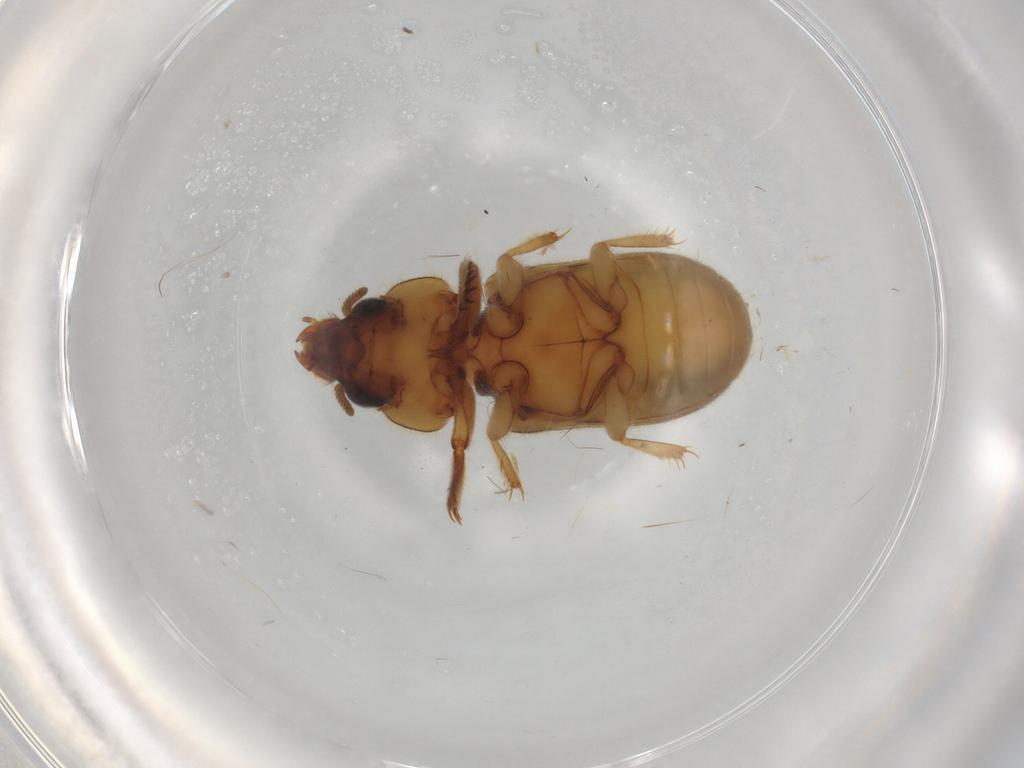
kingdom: Animalia
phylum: Arthropoda
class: Insecta
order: Coleoptera
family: Heteroceridae
